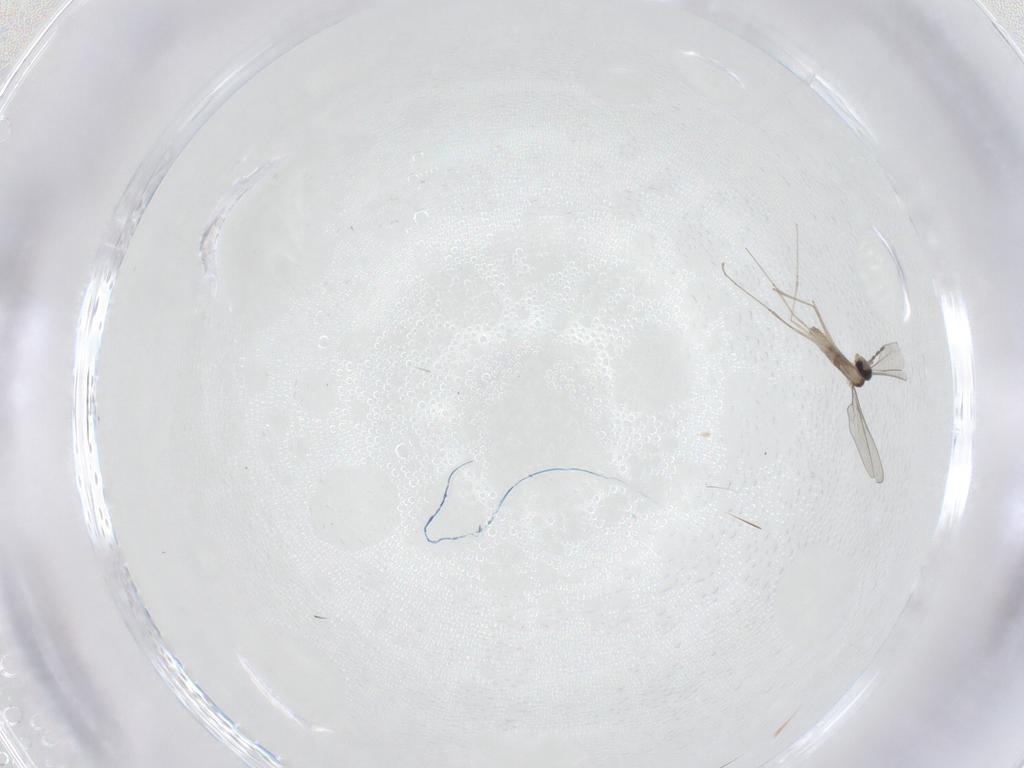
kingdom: Animalia
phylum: Arthropoda
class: Insecta
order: Diptera
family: Cecidomyiidae
